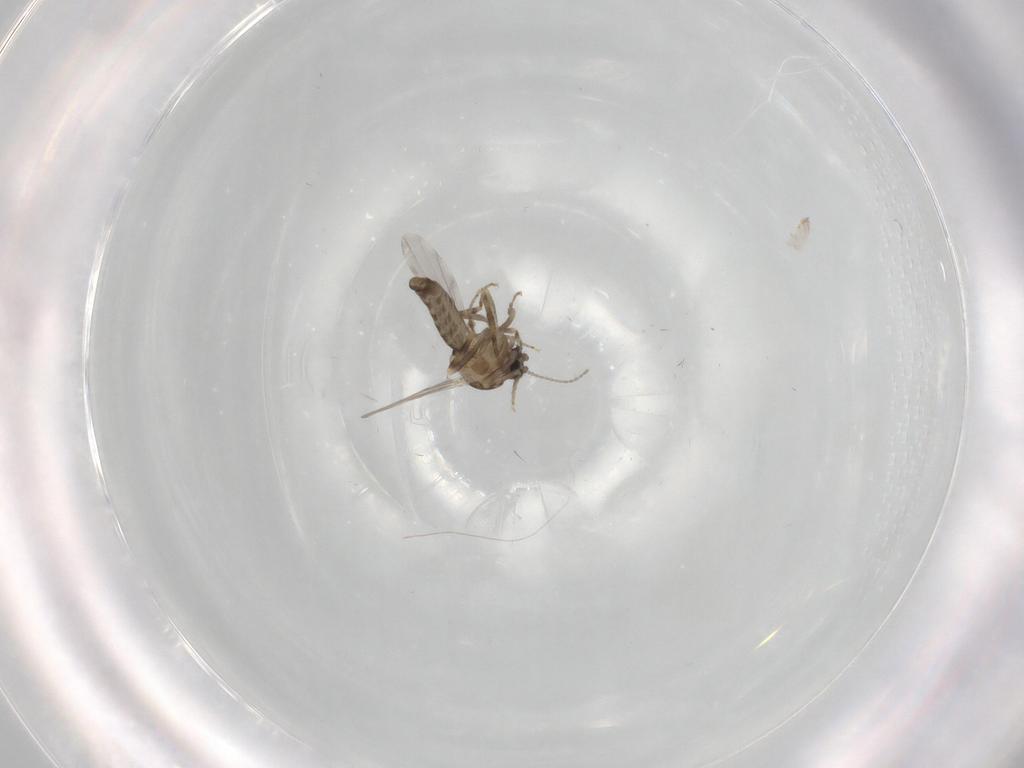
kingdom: Animalia
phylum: Arthropoda
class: Insecta
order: Diptera
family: Ceratopogonidae
